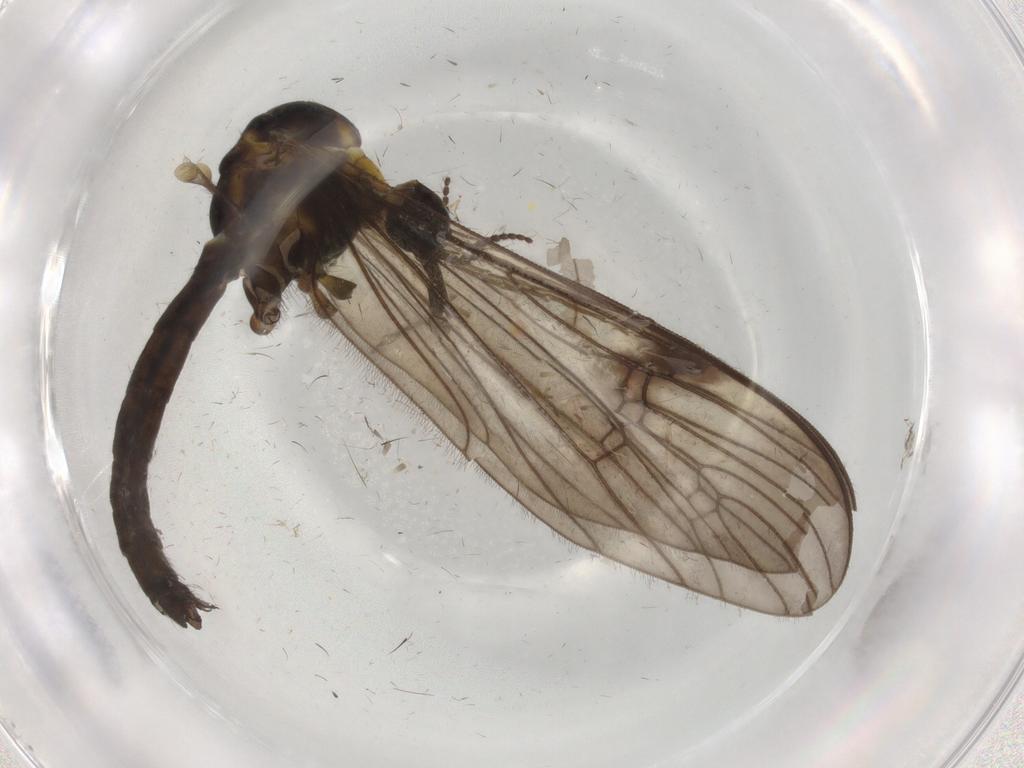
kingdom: Animalia
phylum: Arthropoda
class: Insecta
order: Diptera
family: Limoniidae
